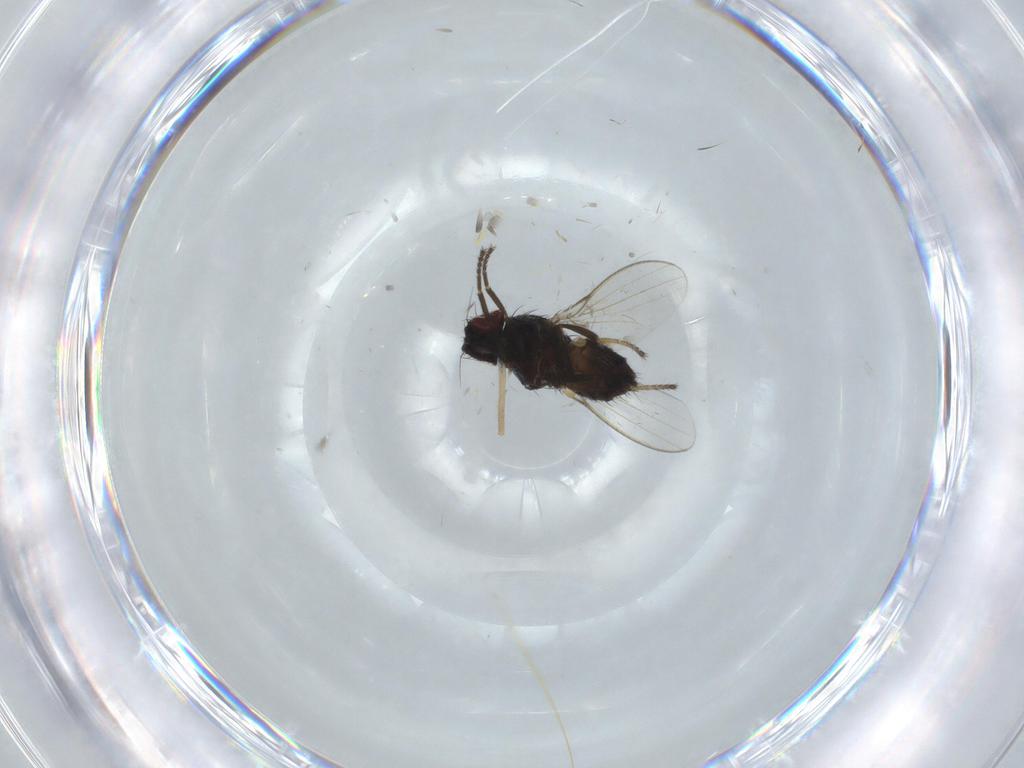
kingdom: Animalia
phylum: Arthropoda
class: Insecta
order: Diptera
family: Milichiidae
